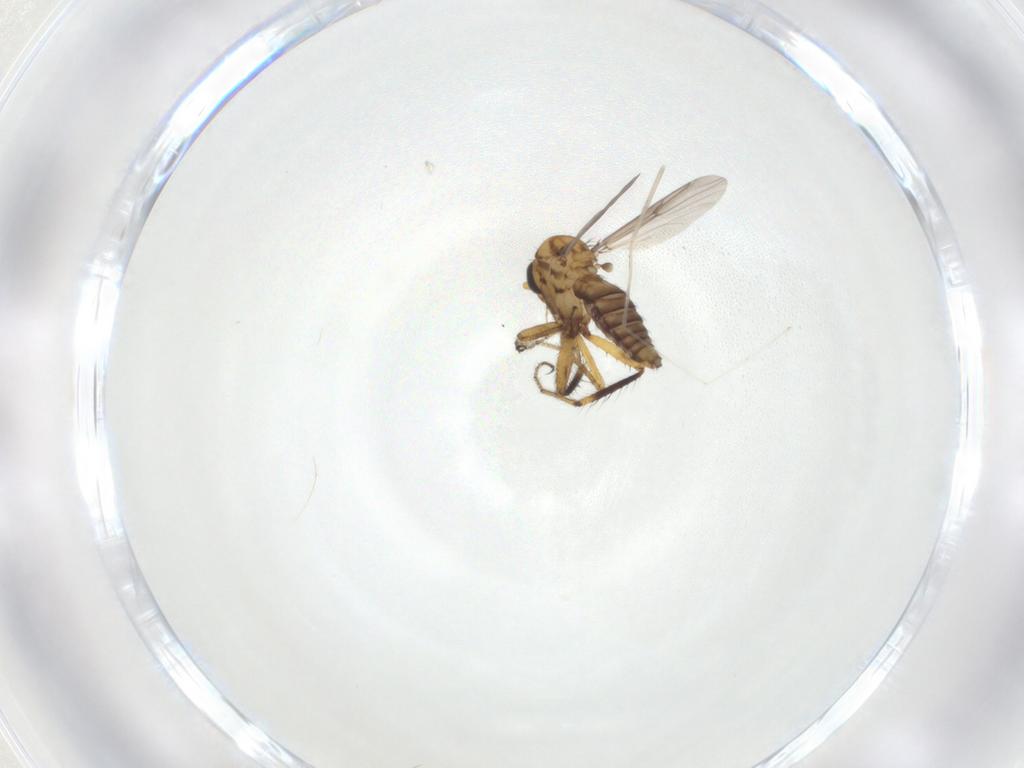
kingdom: Animalia
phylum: Arthropoda
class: Insecta
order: Diptera
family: Cecidomyiidae
